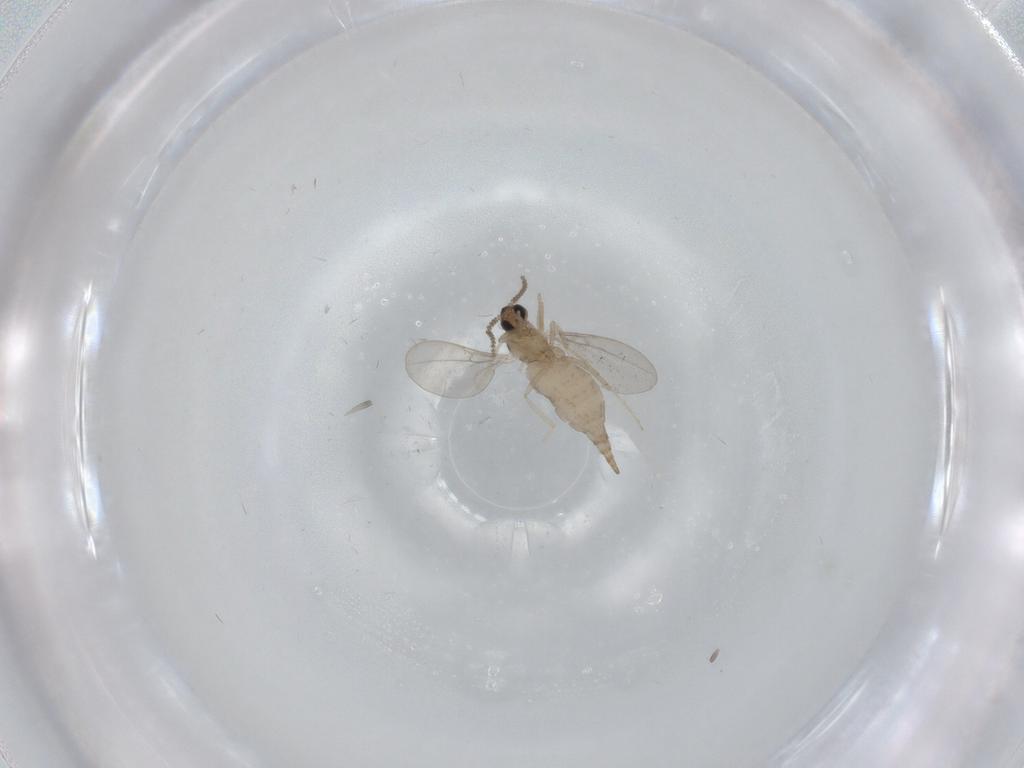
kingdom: Animalia
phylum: Arthropoda
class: Insecta
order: Diptera
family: Cecidomyiidae
